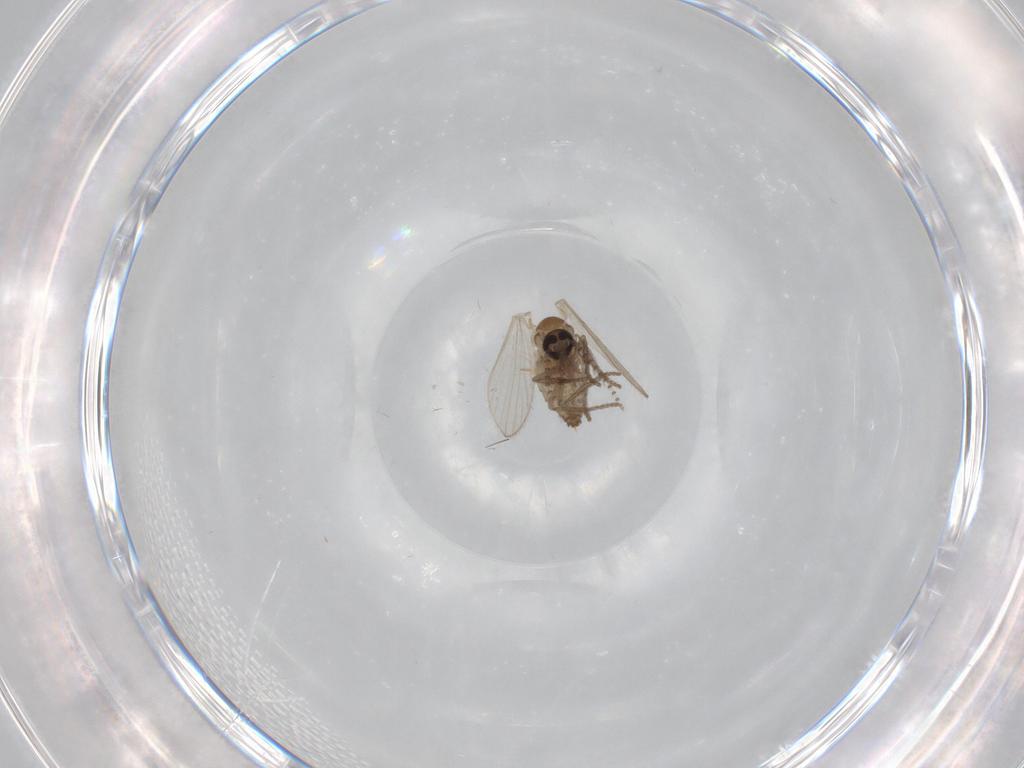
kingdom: Animalia
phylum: Arthropoda
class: Insecta
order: Diptera
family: Psychodidae
